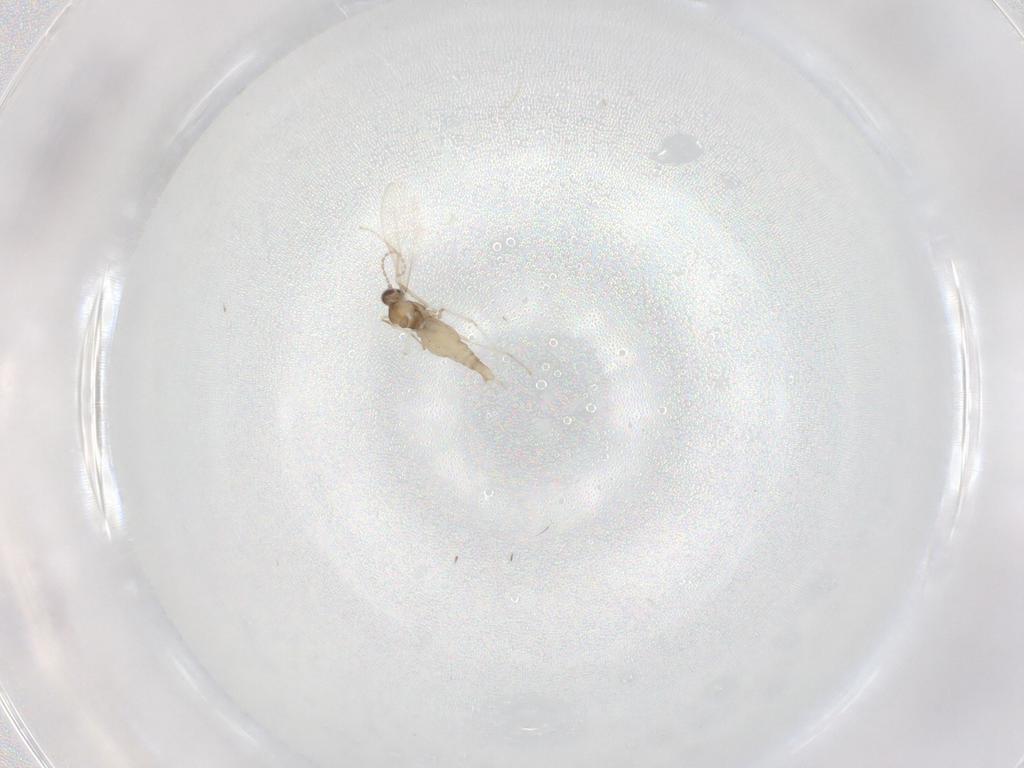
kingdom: Animalia
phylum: Arthropoda
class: Insecta
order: Diptera
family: Cecidomyiidae
